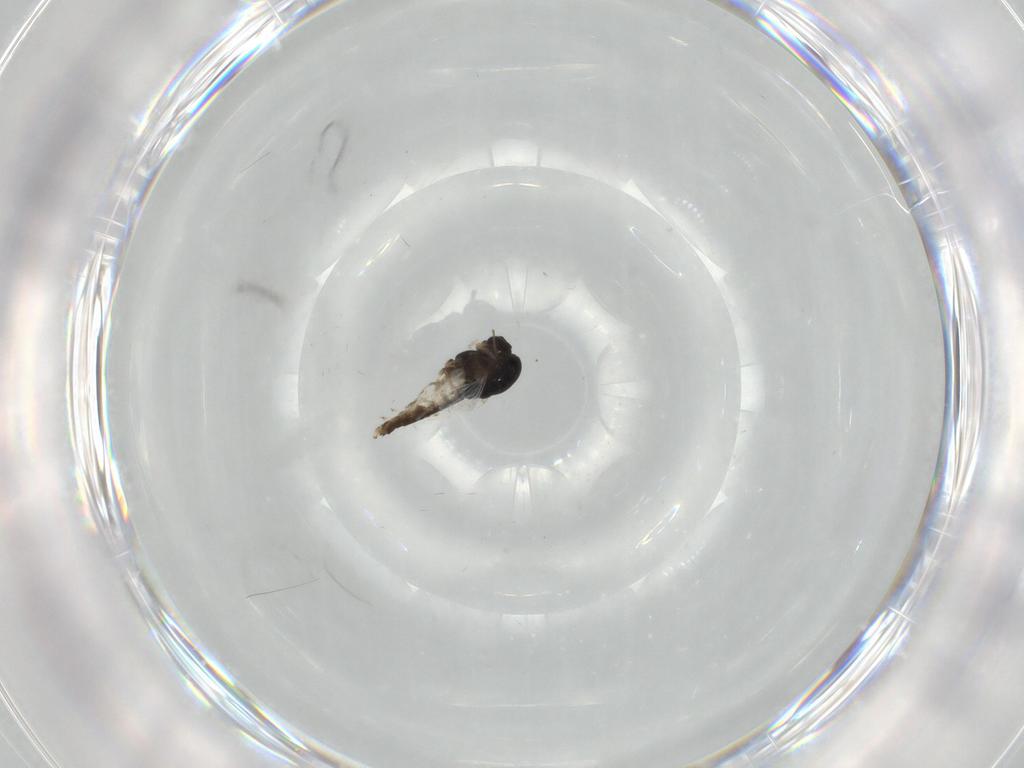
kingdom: Animalia
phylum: Arthropoda
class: Insecta
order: Diptera
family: Chironomidae
